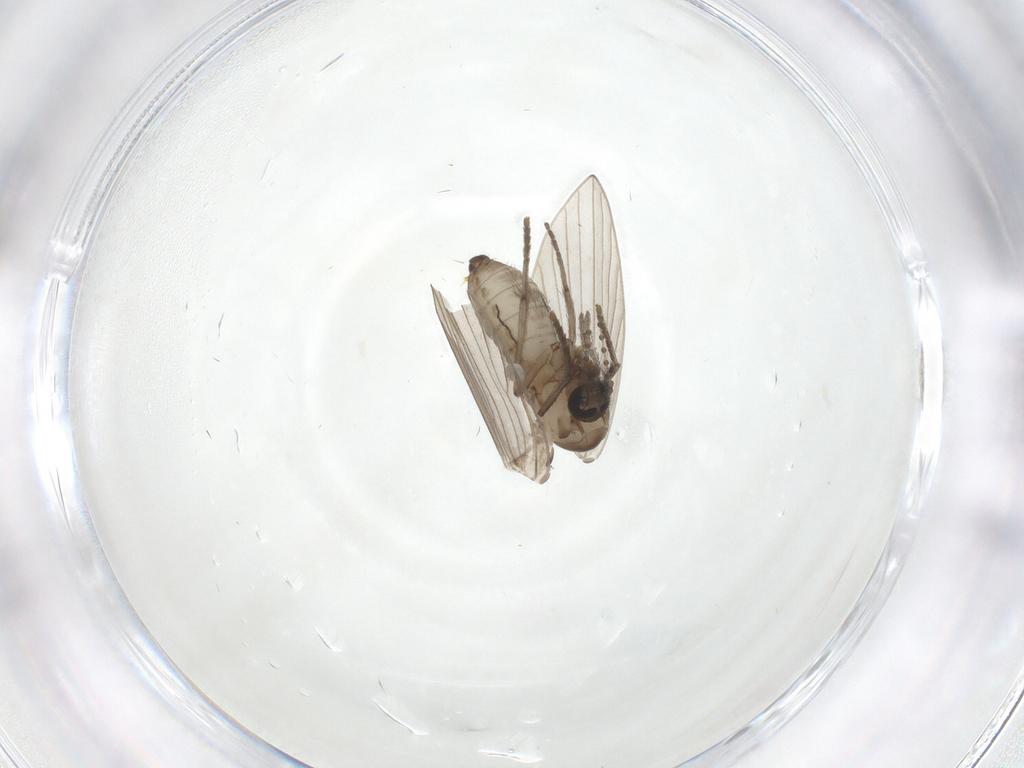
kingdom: Animalia
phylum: Arthropoda
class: Insecta
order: Diptera
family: Psychodidae
